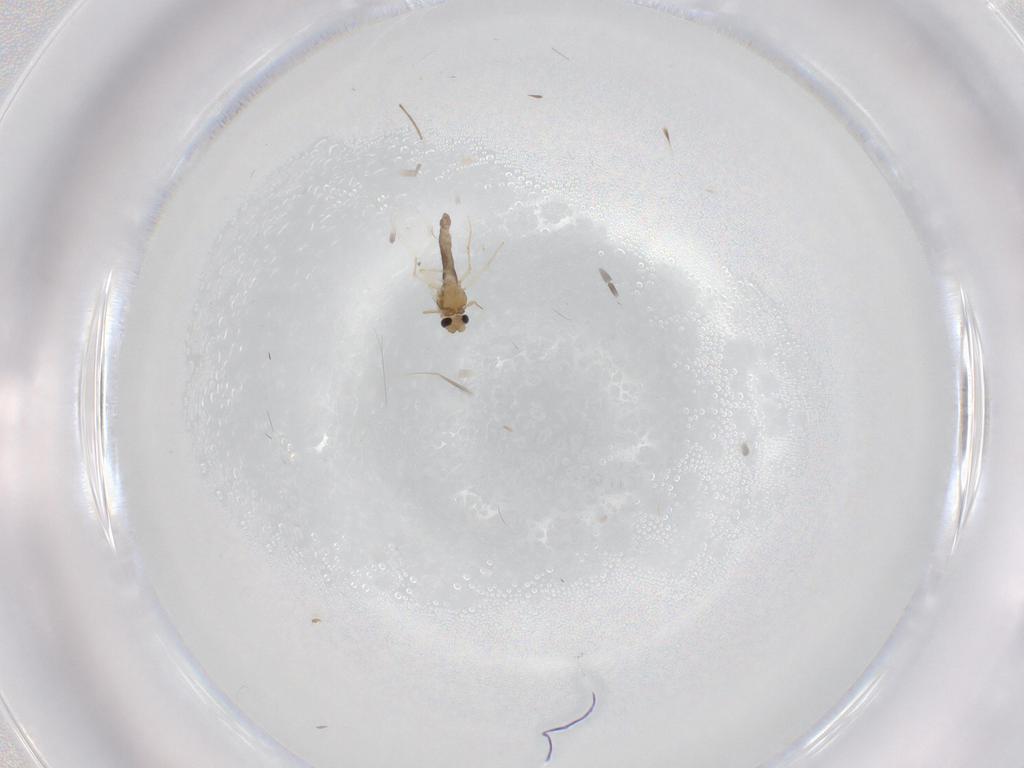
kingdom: Animalia
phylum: Arthropoda
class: Insecta
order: Diptera
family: Chironomidae
